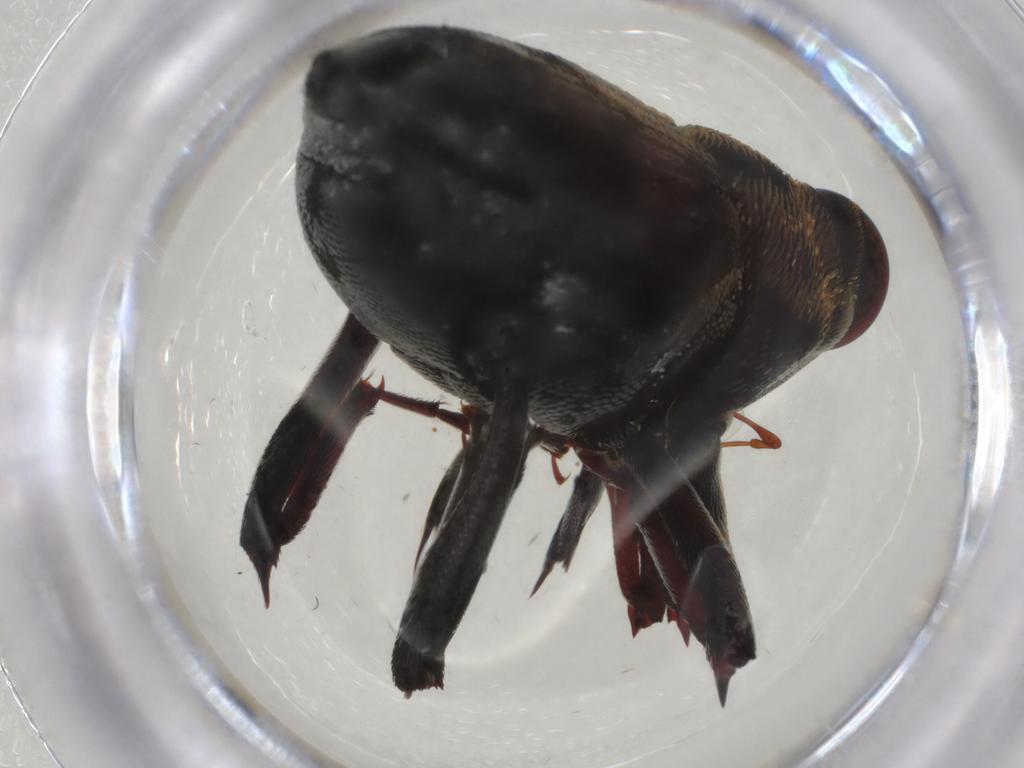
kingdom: Animalia
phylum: Arthropoda
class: Insecta
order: Coleoptera
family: Curculionidae
